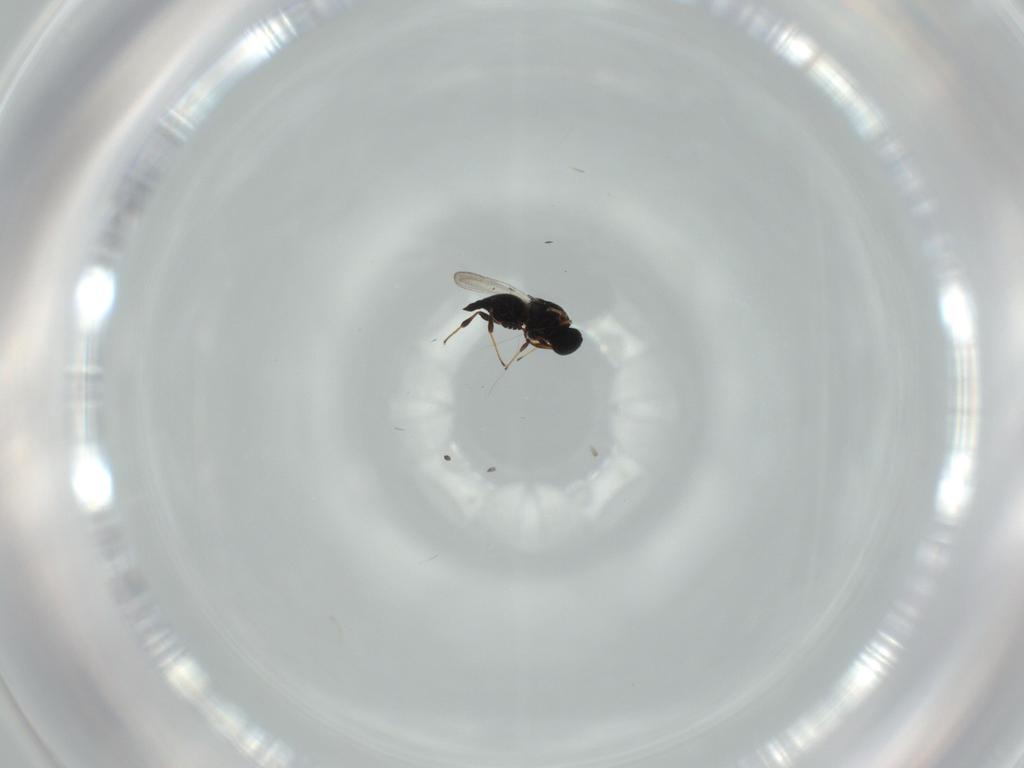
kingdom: Animalia
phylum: Arthropoda
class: Insecta
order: Hymenoptera
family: Platygastridae
